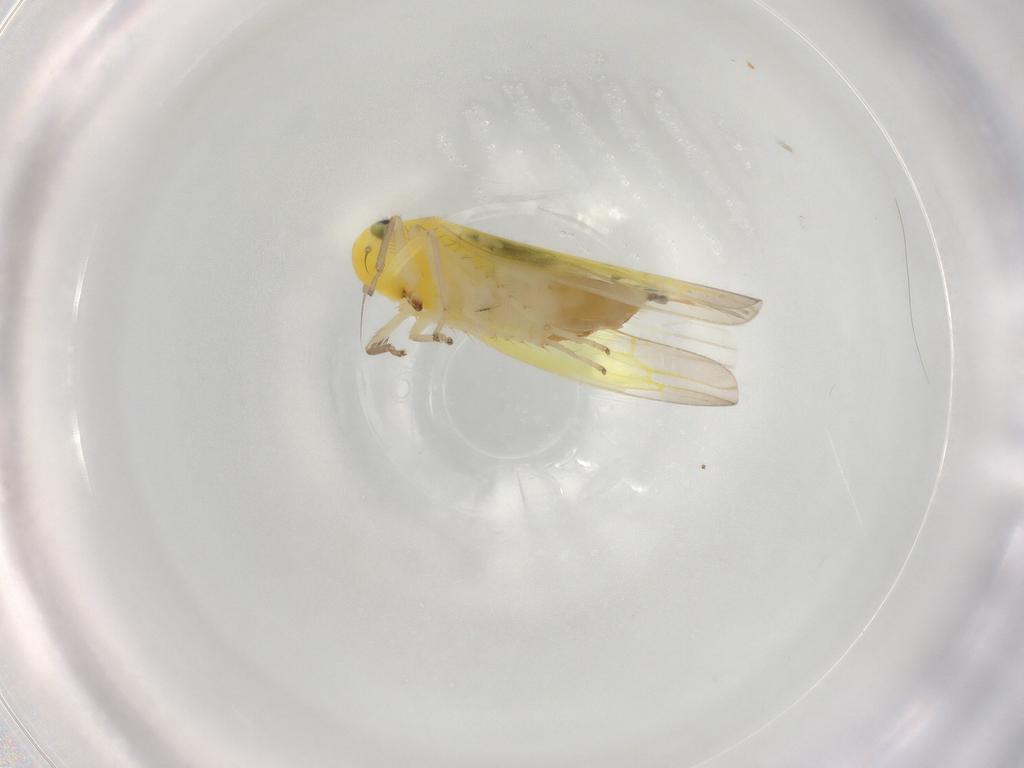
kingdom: Animalia
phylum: Arthropoda
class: Insecta
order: Hemiptera
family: Cicadellidae
